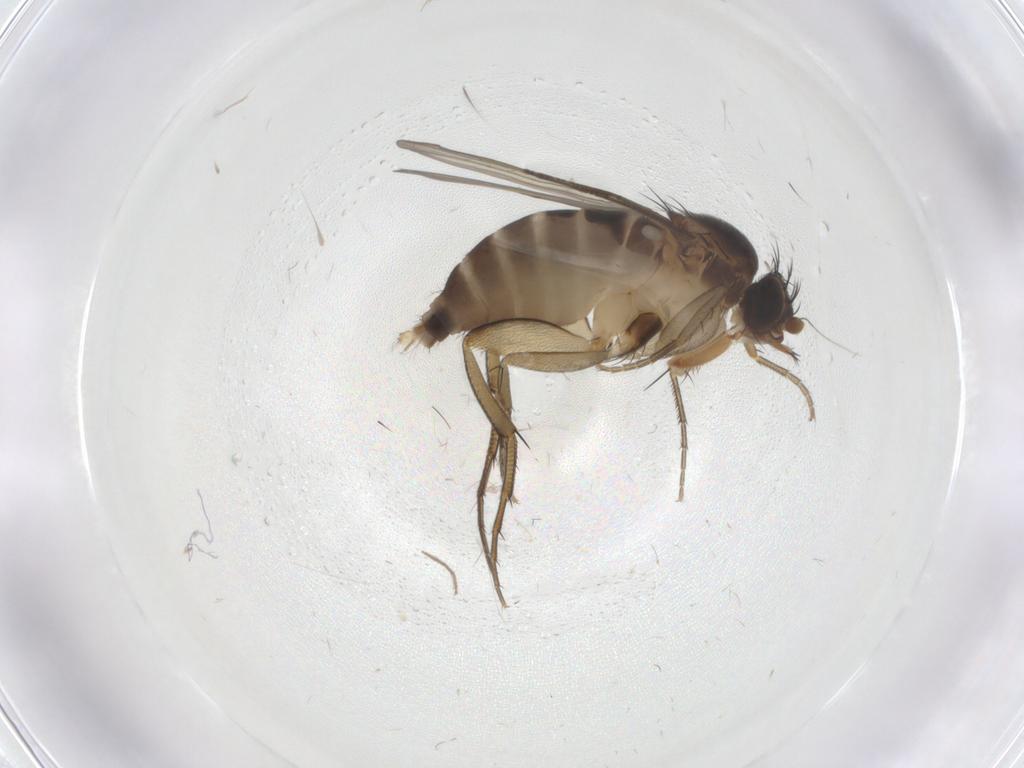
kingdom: Animalia
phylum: Arthropoda
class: Insecta
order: Diptera
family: Phoridae
